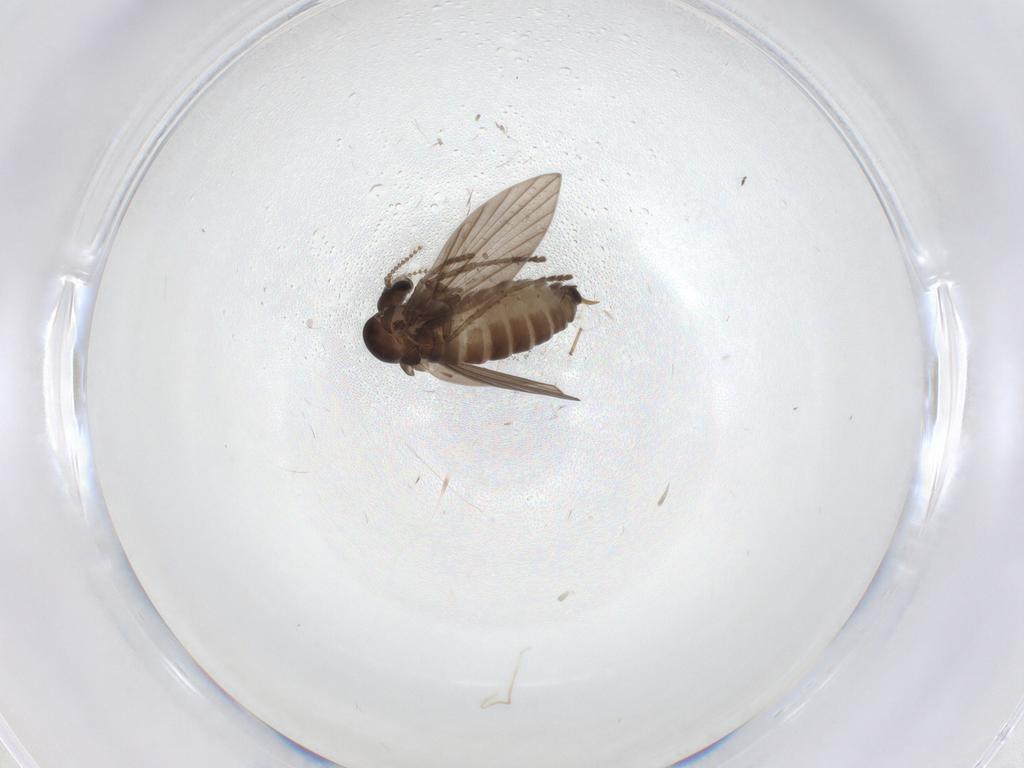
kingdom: Animalia
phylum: Arthropoda
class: Insecta
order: Diptera
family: Psychodidae
